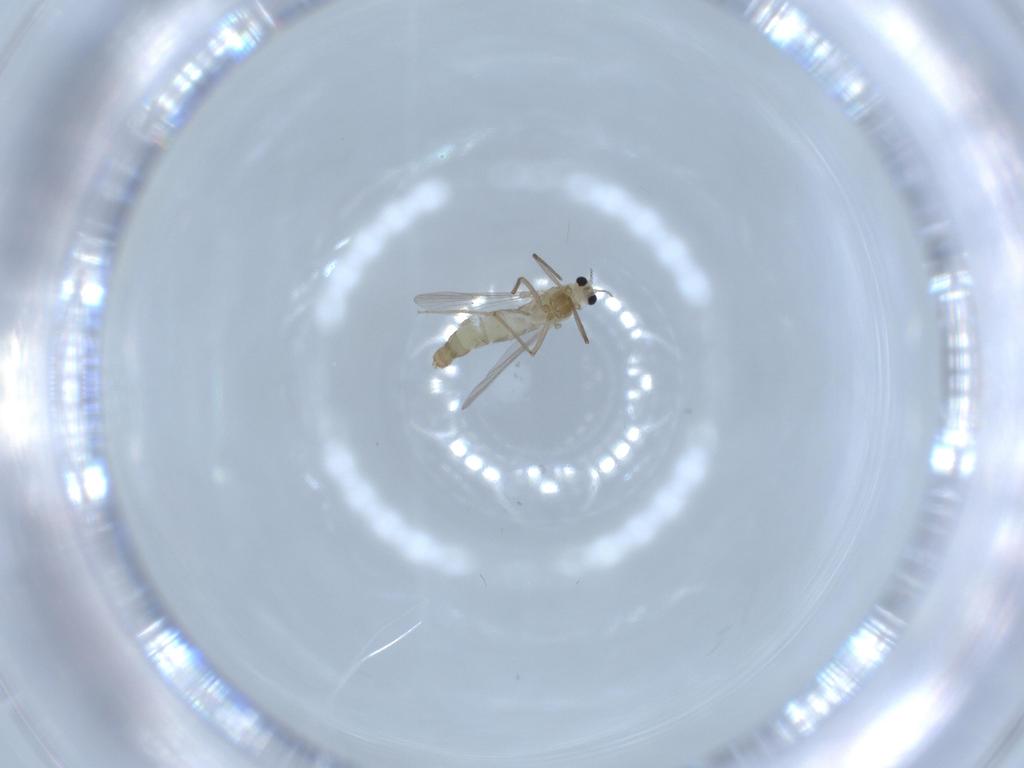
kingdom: Animalia
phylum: Arthropoda
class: Insecta
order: Diptera
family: Chironomidae
